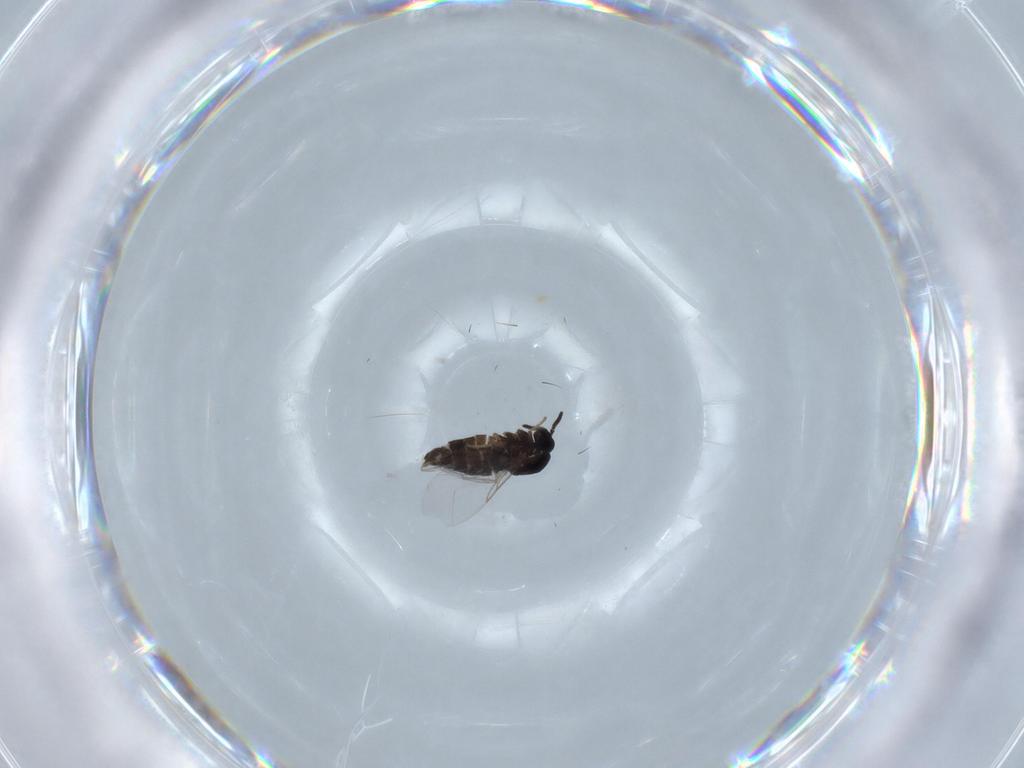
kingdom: Animalia
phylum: Arthropoda
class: Insecta
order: Diptera
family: Scatopsidae
